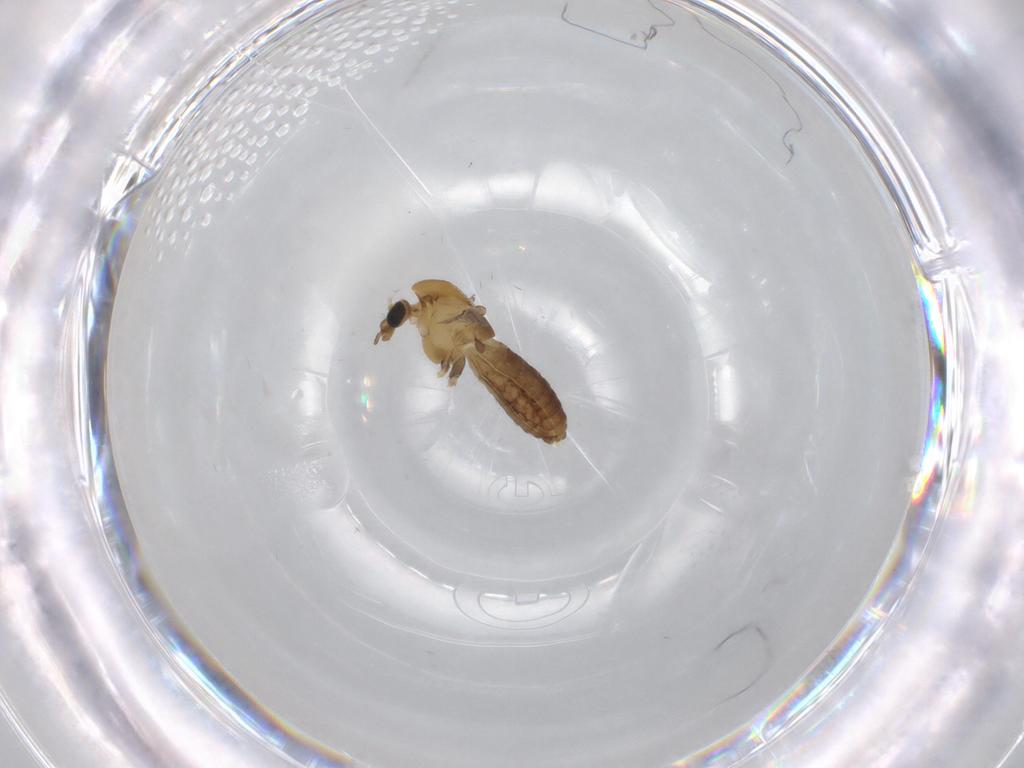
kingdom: Animalia
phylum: Arthropoda
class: Insecta
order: Diptera
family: Chironomidae
